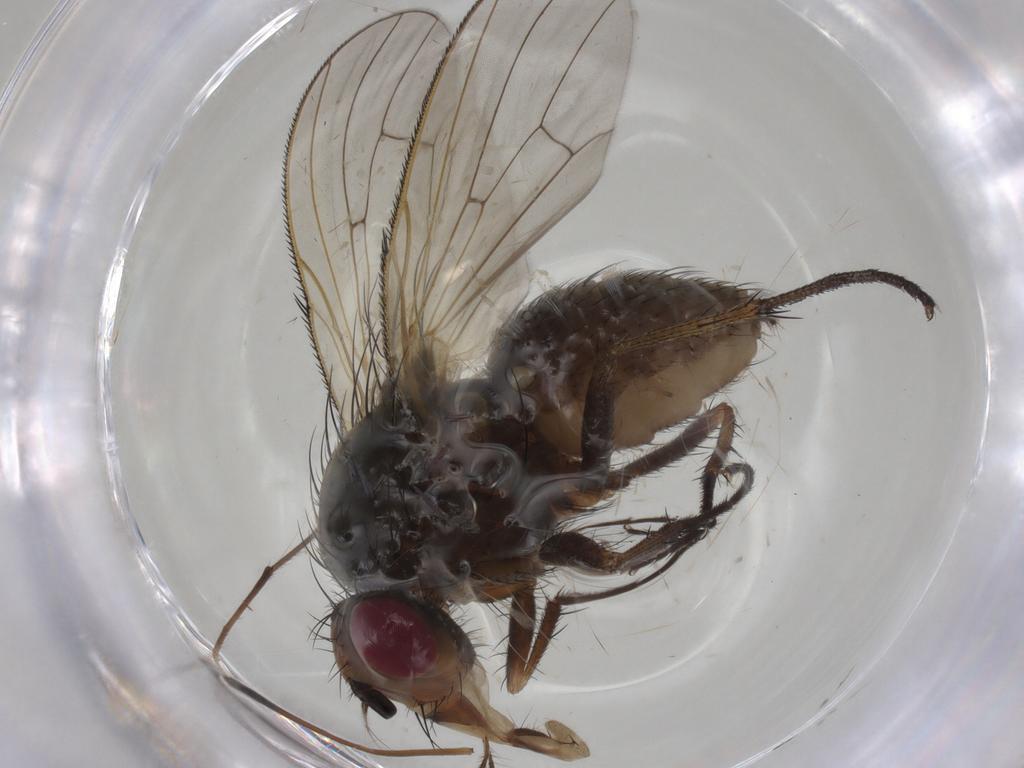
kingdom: Animalia
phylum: Arthropoda
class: Insecta
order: Diptera
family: Anthomyiidae
